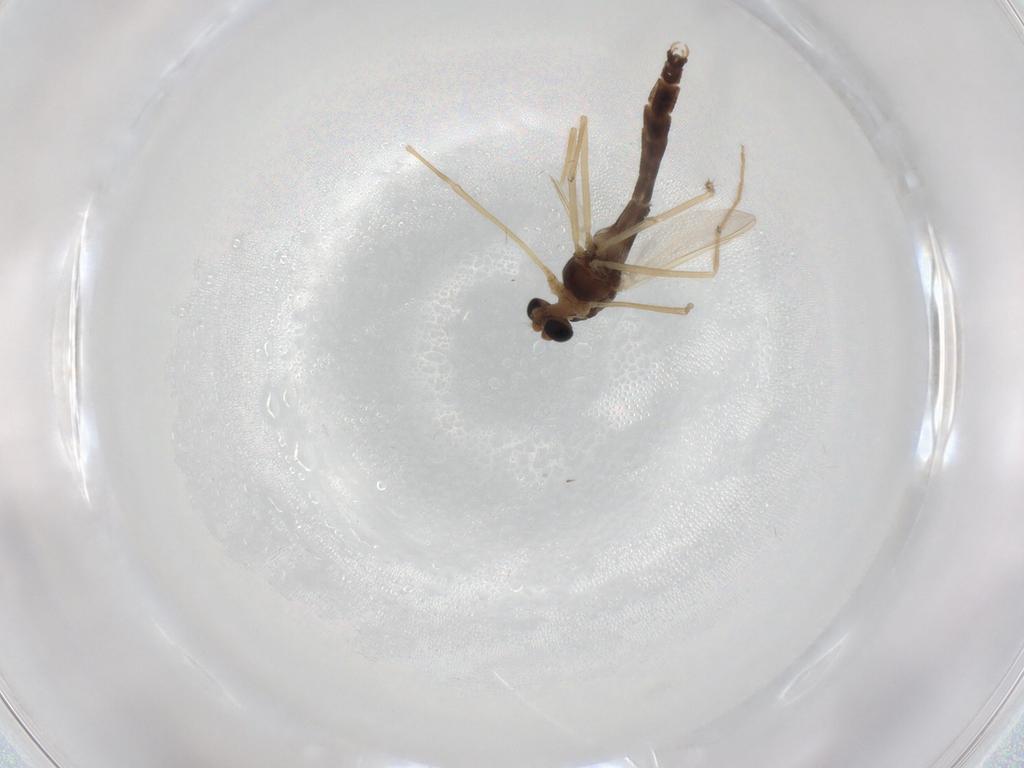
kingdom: Animalia
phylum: Arthropoda
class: Insecta
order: Diptera
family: Chironomidae
